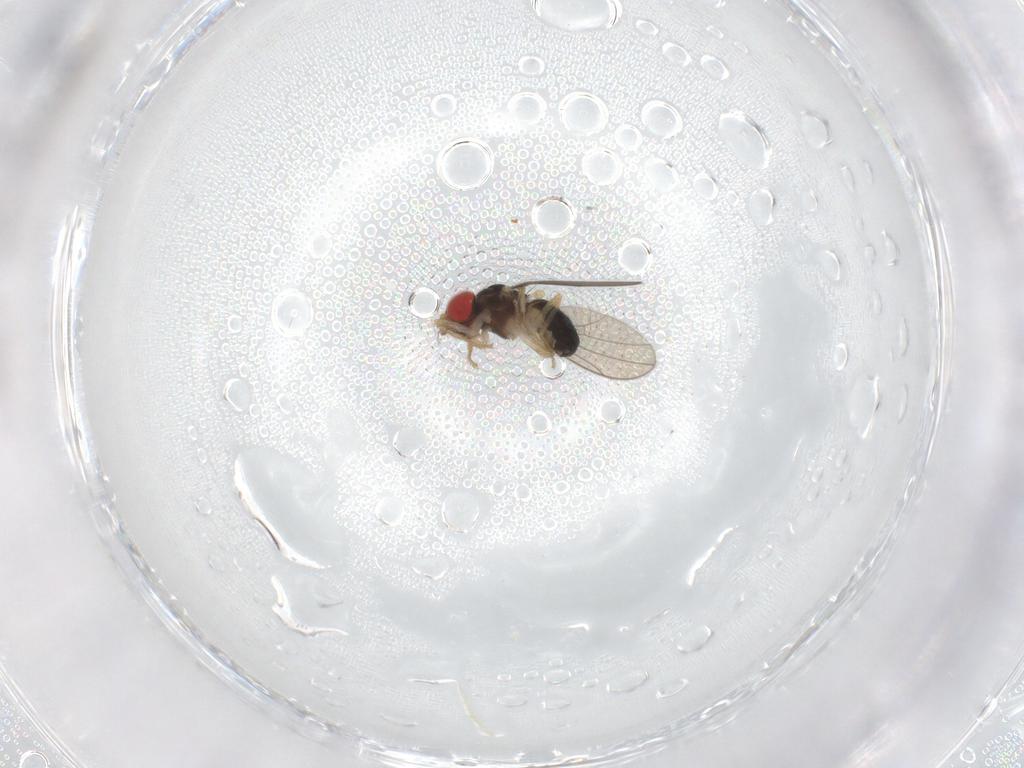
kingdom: Animalia
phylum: Arthropoda
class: Insecta
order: Diptera
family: Drosophilidae
